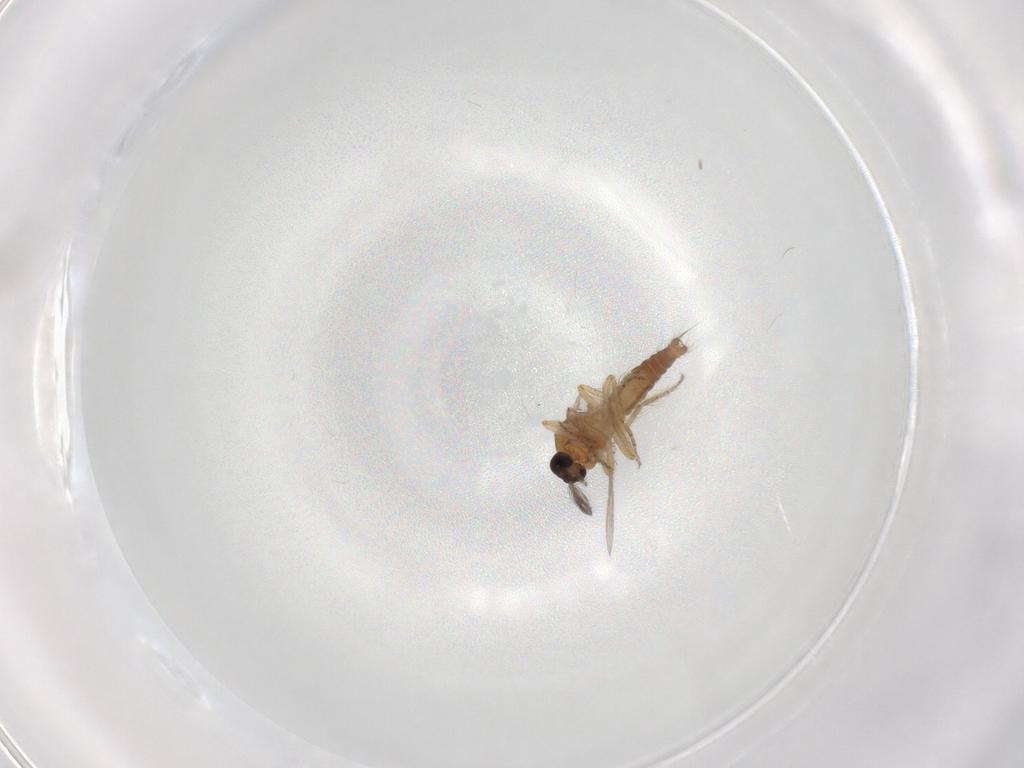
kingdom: Animalia
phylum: Arthropoda
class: Insecta
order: Diptera
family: Ceratopogonidae
